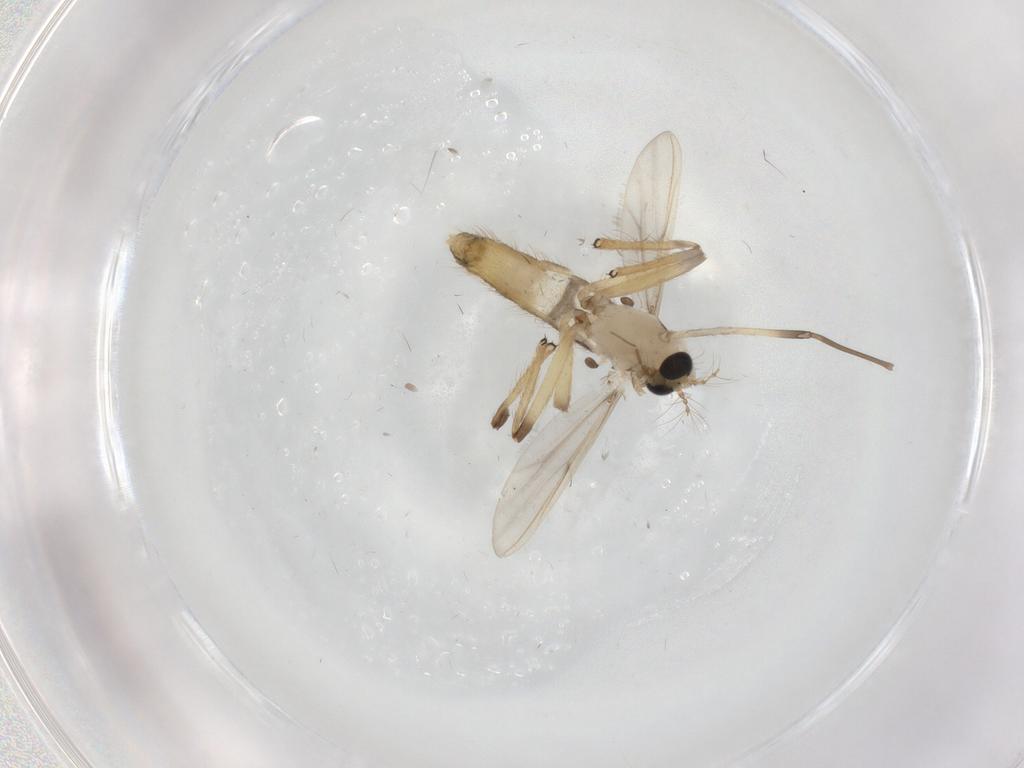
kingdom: Animalia
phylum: Arthropoda
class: Insecta
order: Diptera
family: Chironomidae
